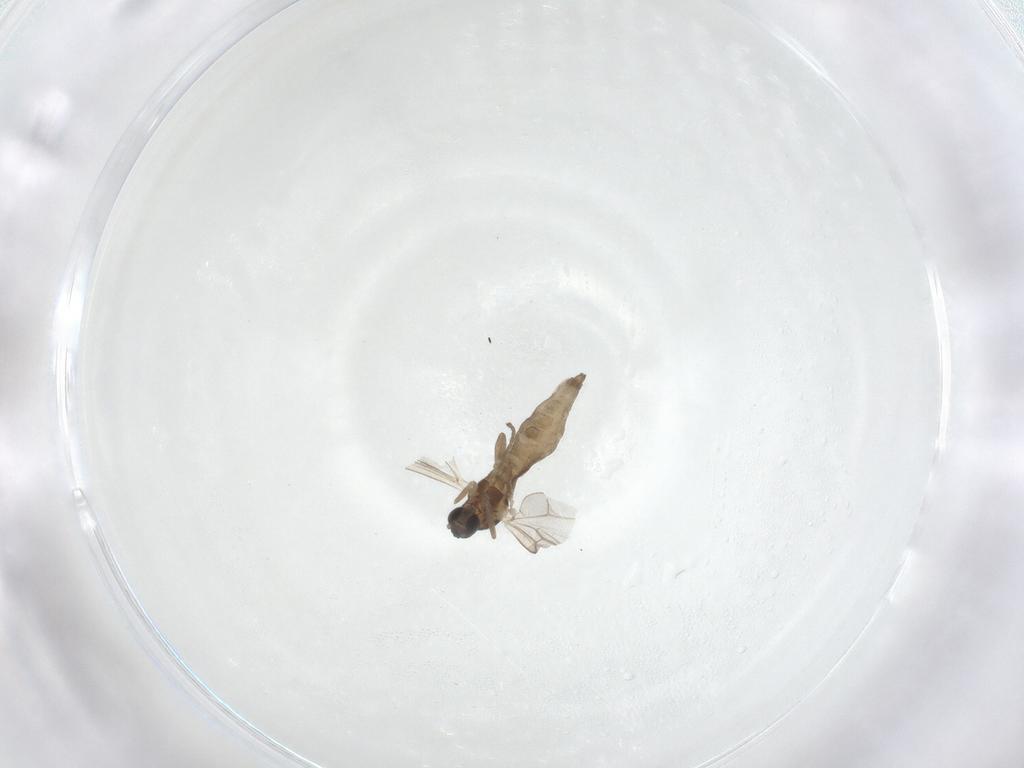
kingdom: Animalia
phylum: Arthropoda
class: Insecta
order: Diptera
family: Cecidomyiidae
